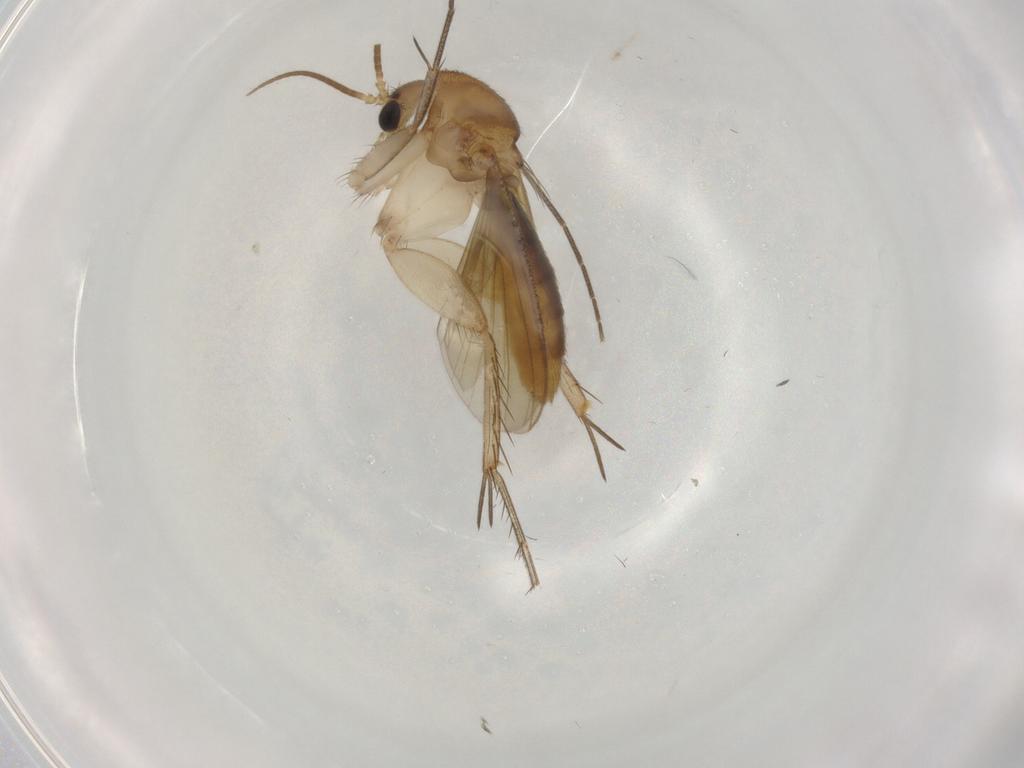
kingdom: Animalia
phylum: Arthropoda
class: Insecta
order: Diptera
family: Mycetophilidae
